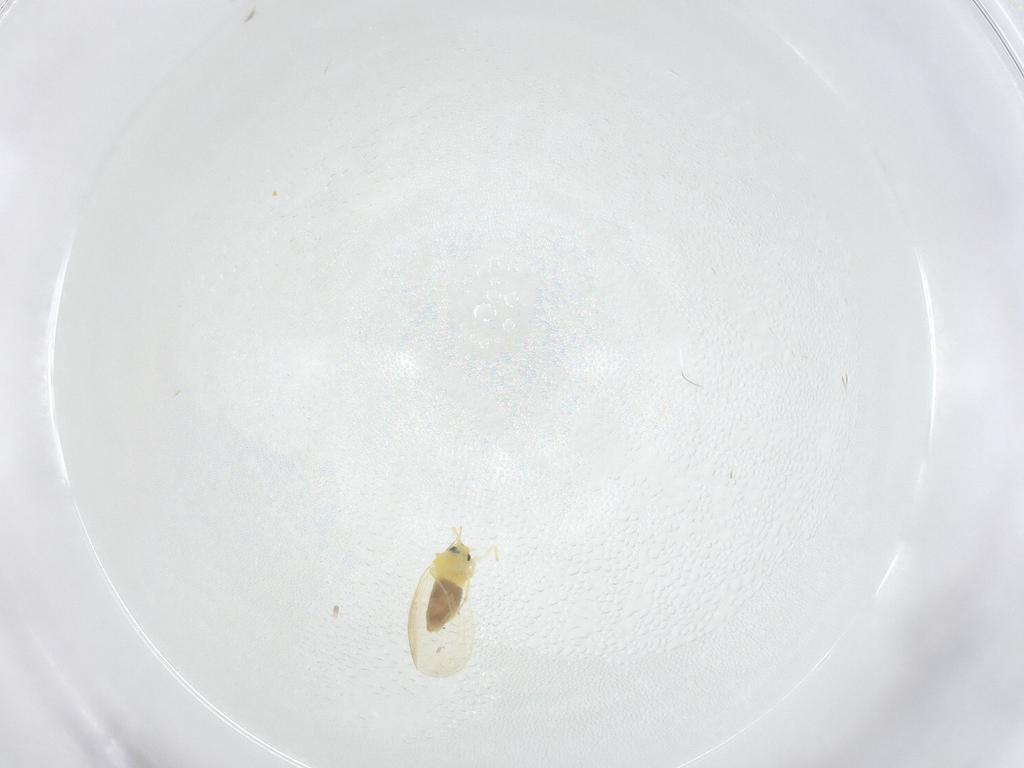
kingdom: Animalia
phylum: Arthropoda
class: Insecta
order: Hemiptera
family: Aleyrodidae
